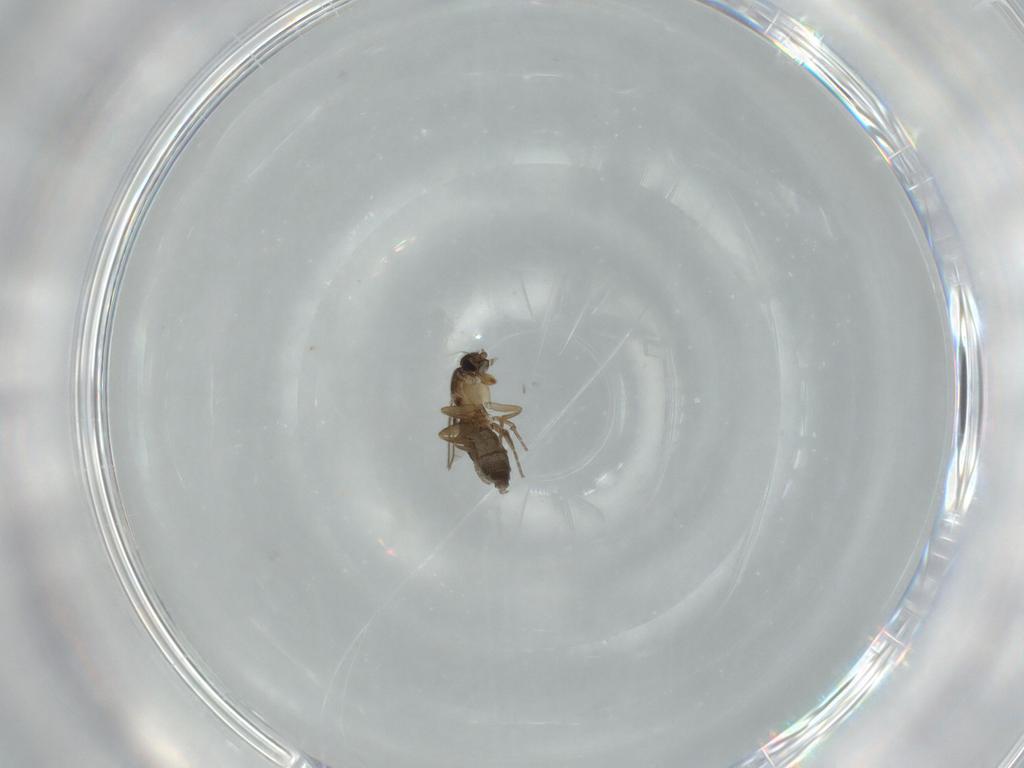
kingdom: Animalia
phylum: Arthropoda
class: Insecta
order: Diptera
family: Phoridae
